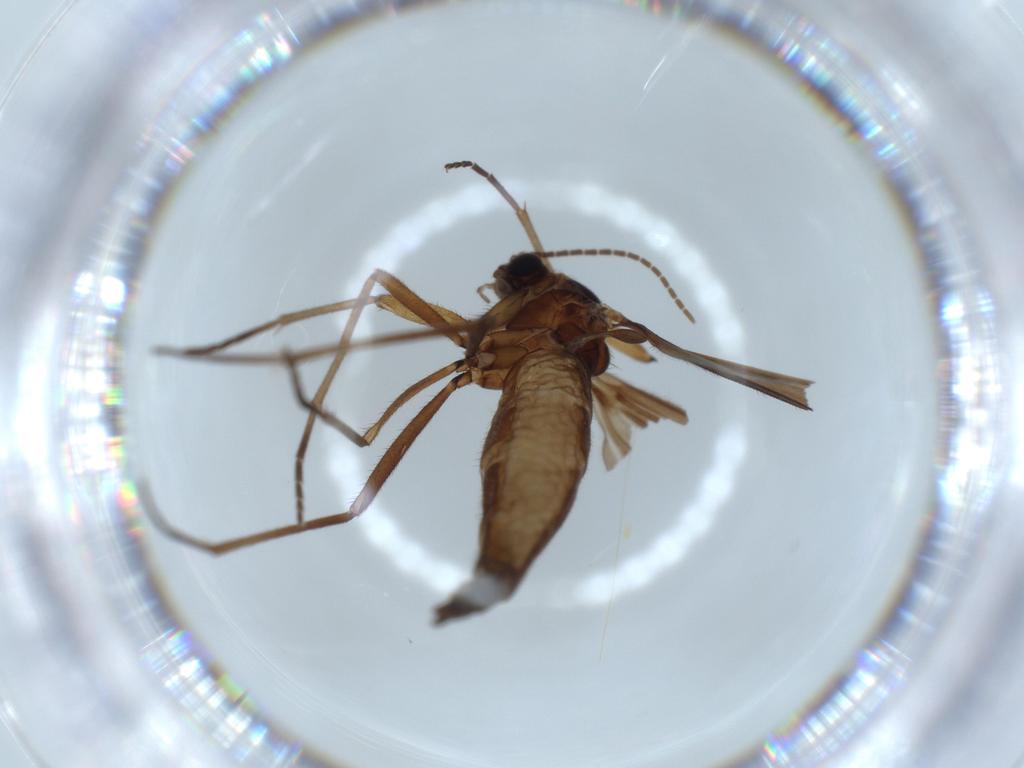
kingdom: Animalia
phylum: Arthropoda
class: Insecta
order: Diptera
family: Sciaridae
